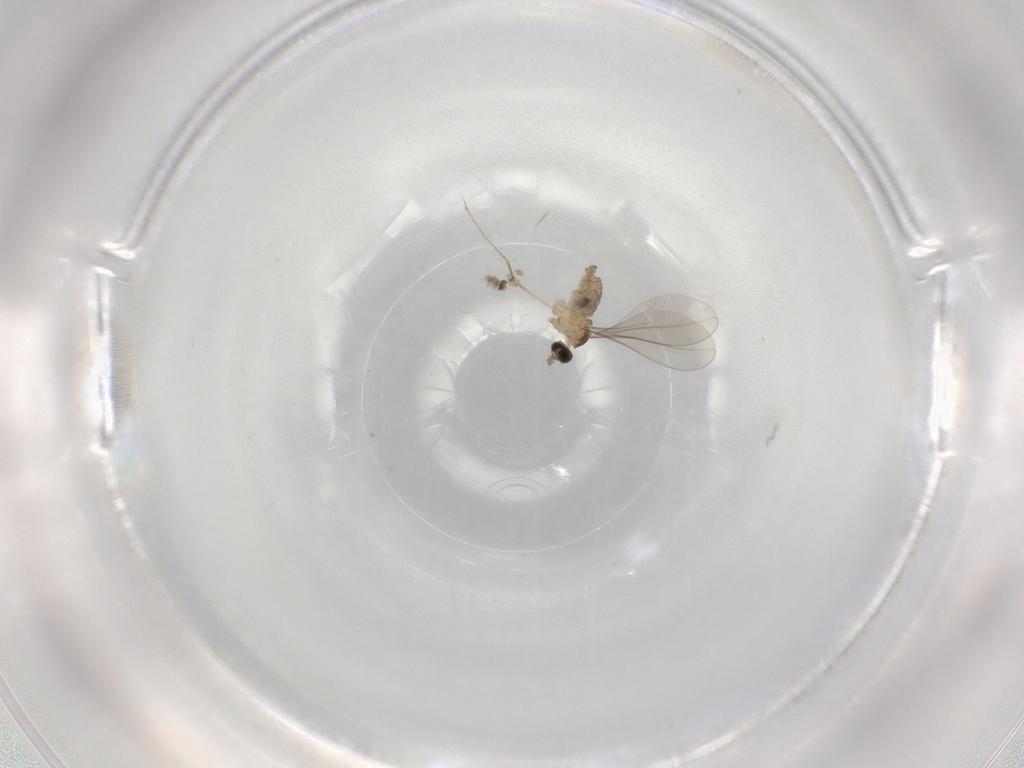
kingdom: Animalia
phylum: Arthropoda
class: Insecta
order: Diptera
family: Cecidomyiidae
